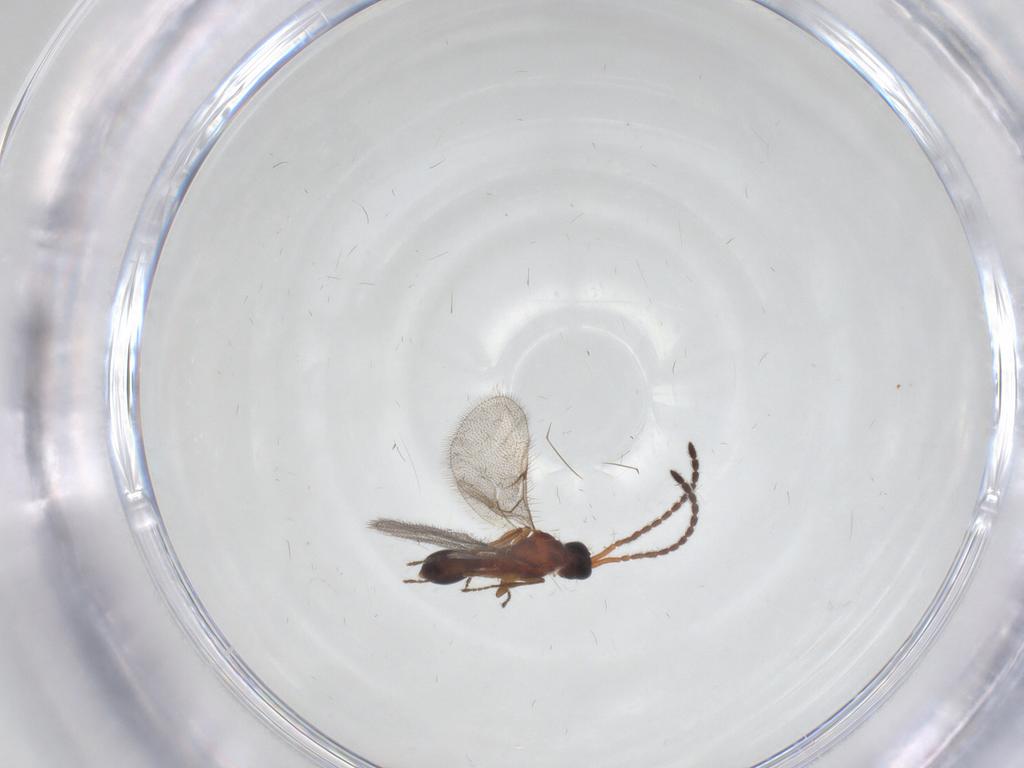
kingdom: Animalia
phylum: Arthropoda
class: Insecta
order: Hymenoptera
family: Diapriidae
